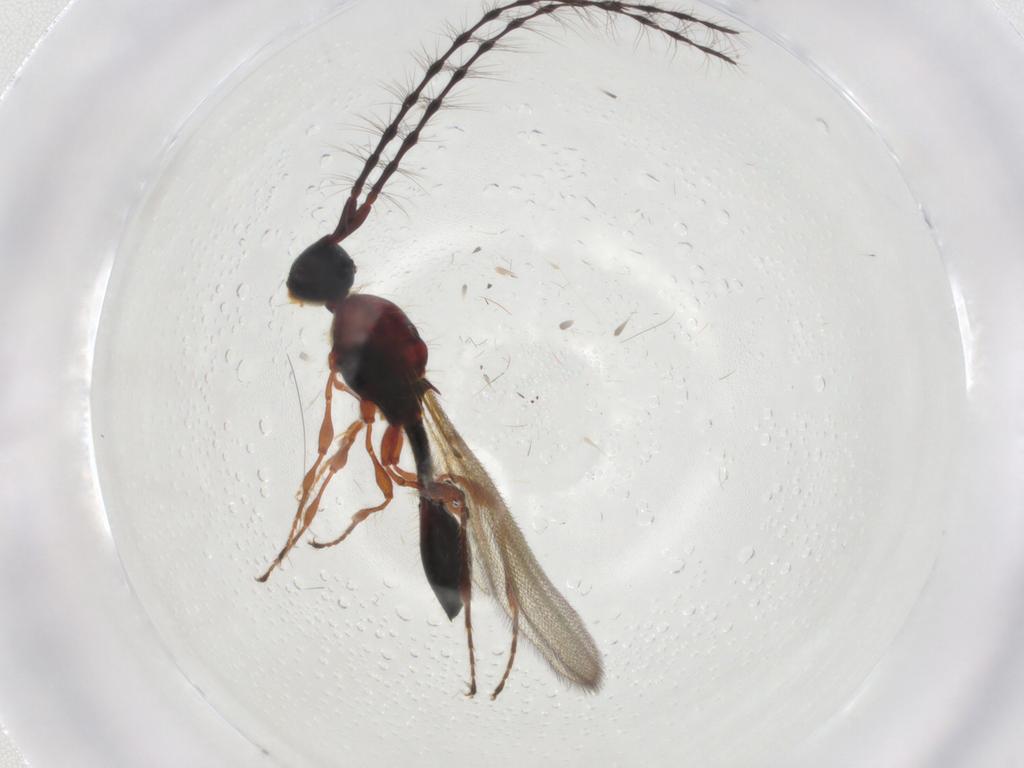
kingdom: Animalia
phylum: Arthropoda
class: Insecta
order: Hymenoptera
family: Diapriidae
